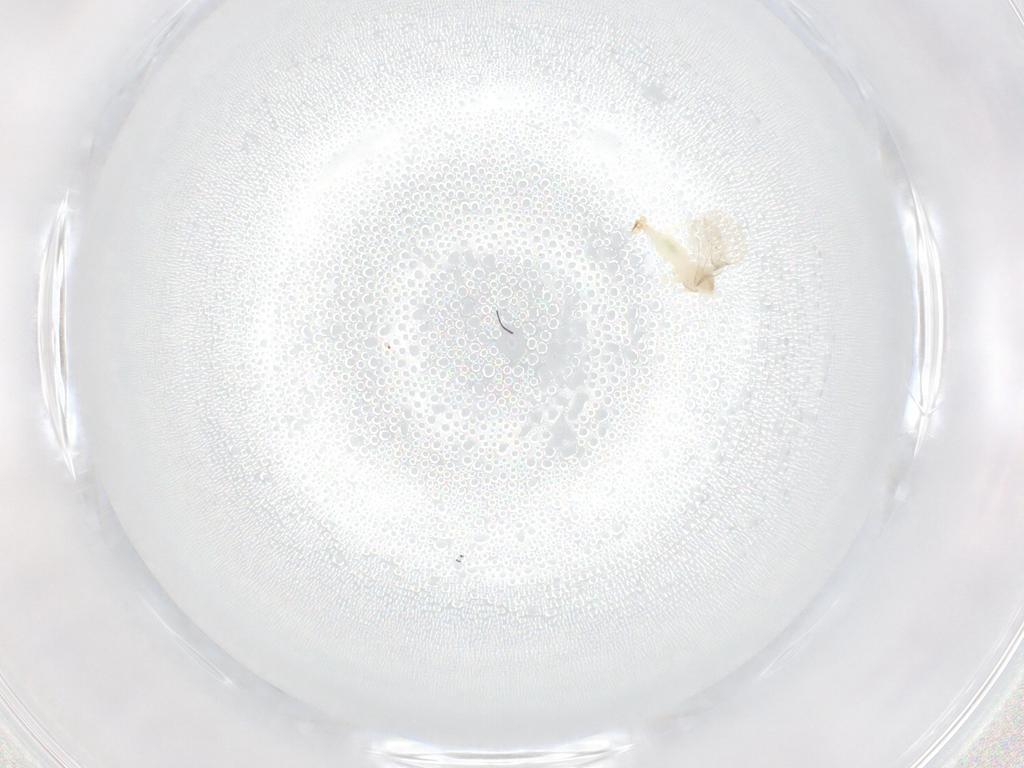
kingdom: Animalia
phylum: Arthropoda
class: Insecta
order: Diptera
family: Cecidomyiidae
